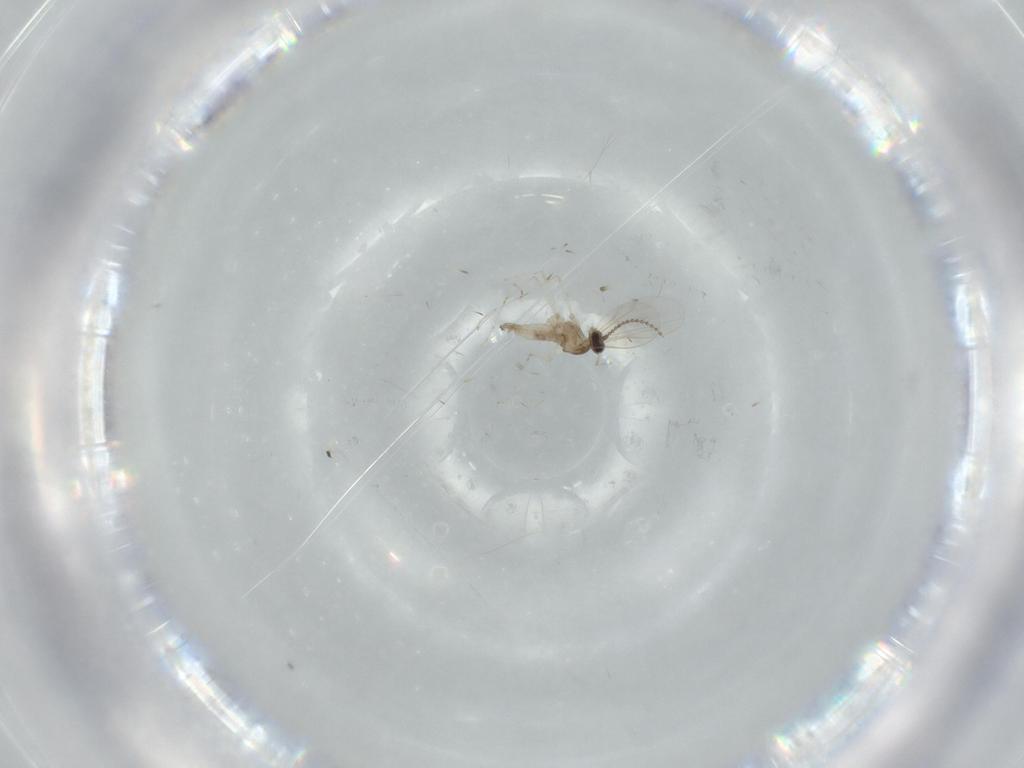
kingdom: Animalia
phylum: Arthropoda
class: Insecta
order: Diptera
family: Cecidomyiidae
